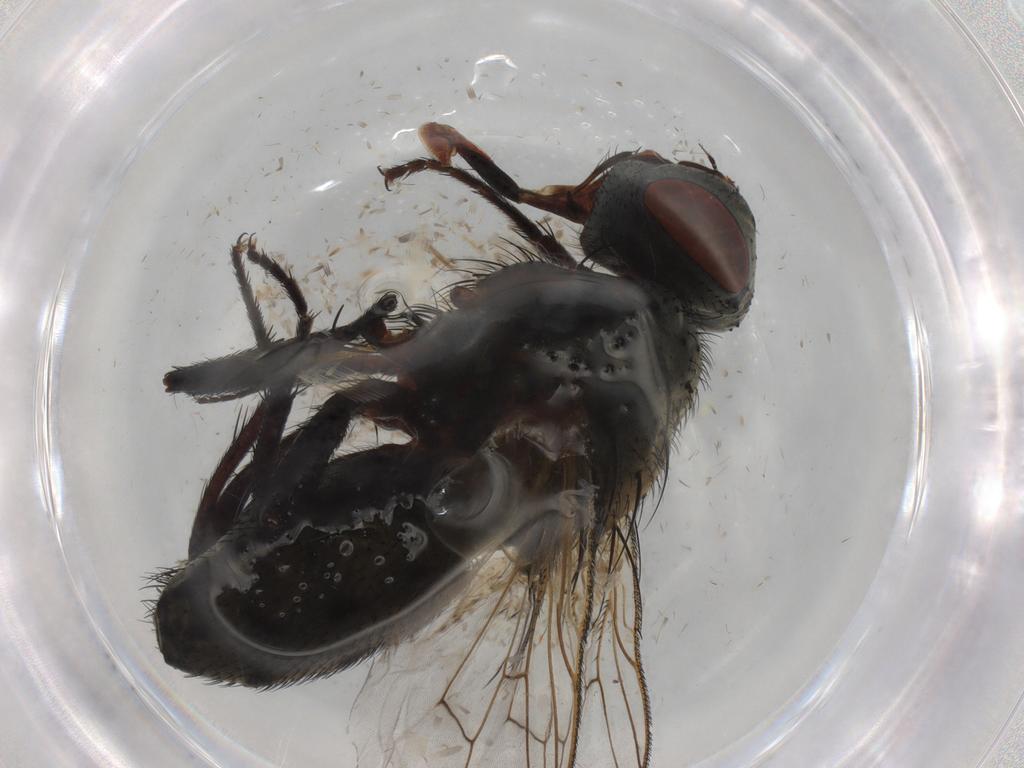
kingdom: Animalia
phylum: Arthropoda
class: Insecta
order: Diptera
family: Sarcophagidae
